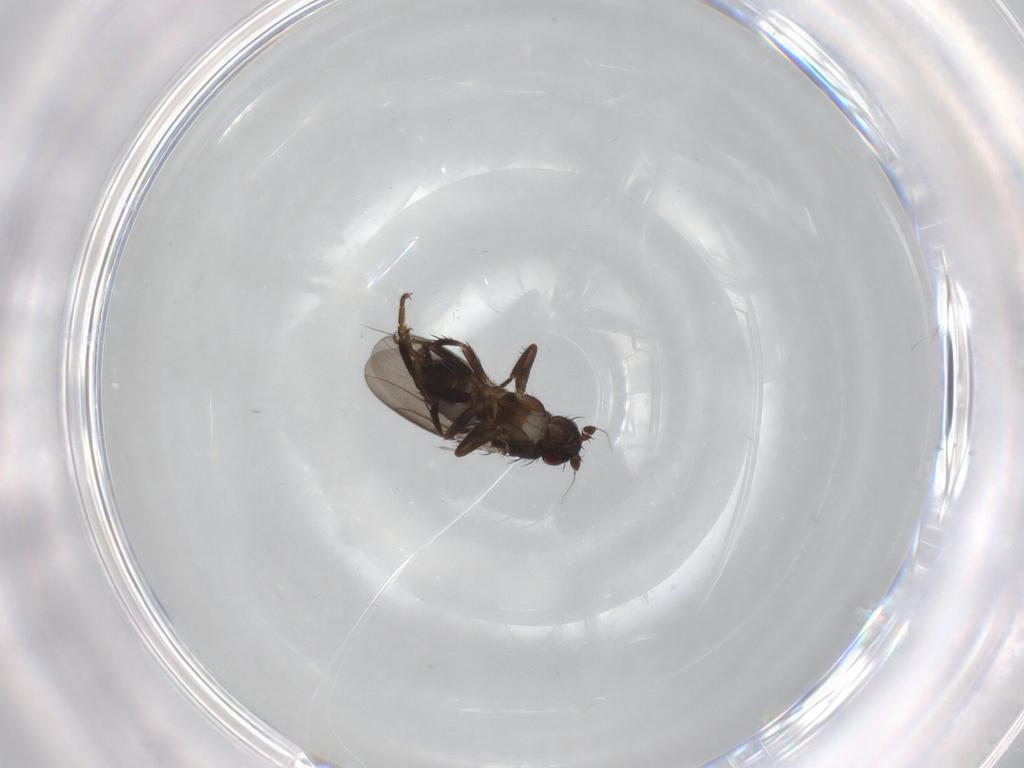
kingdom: Animalia
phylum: Arthropoda
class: Insecta
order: Diptera
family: Sphaeroceridae
